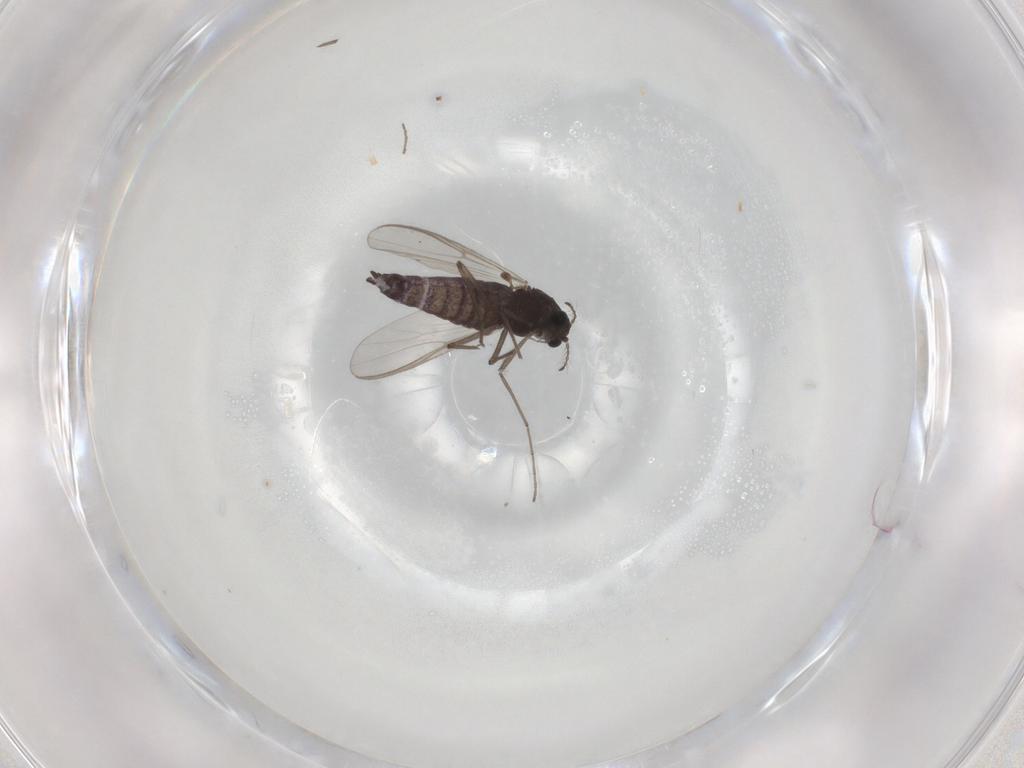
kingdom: Animalia
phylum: Arthropoda
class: Insecta
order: Diptera
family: Chironomidae
